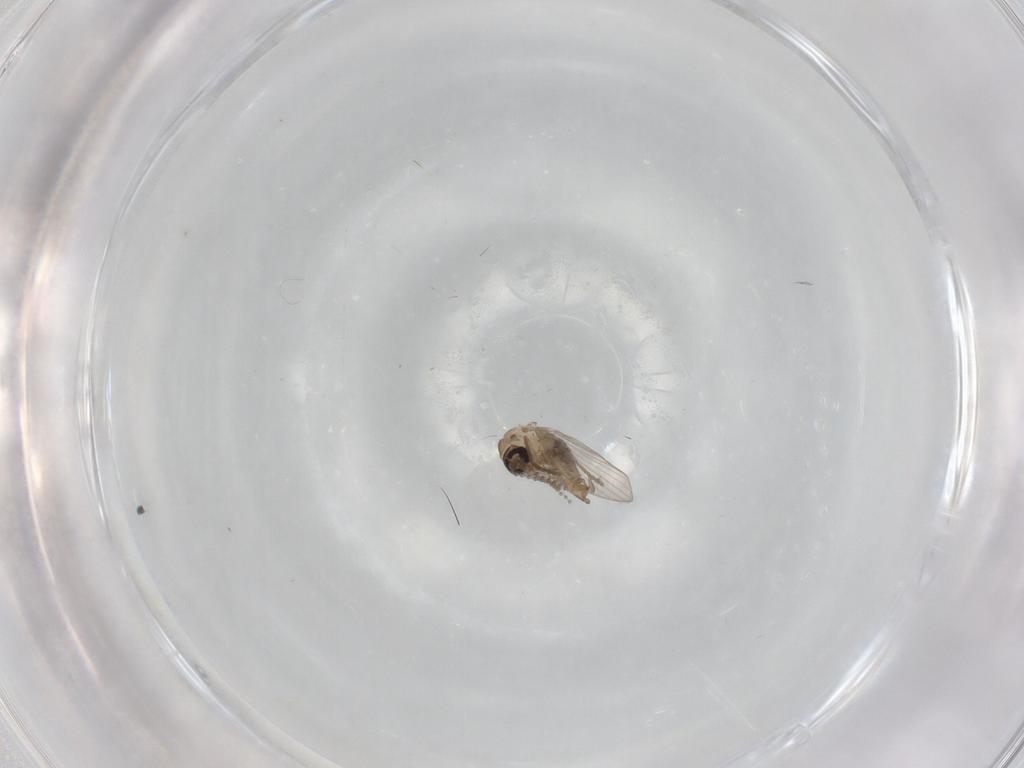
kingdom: Animalia
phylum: Arthropoda
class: Insecta
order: Diptera
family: Psychodidae
